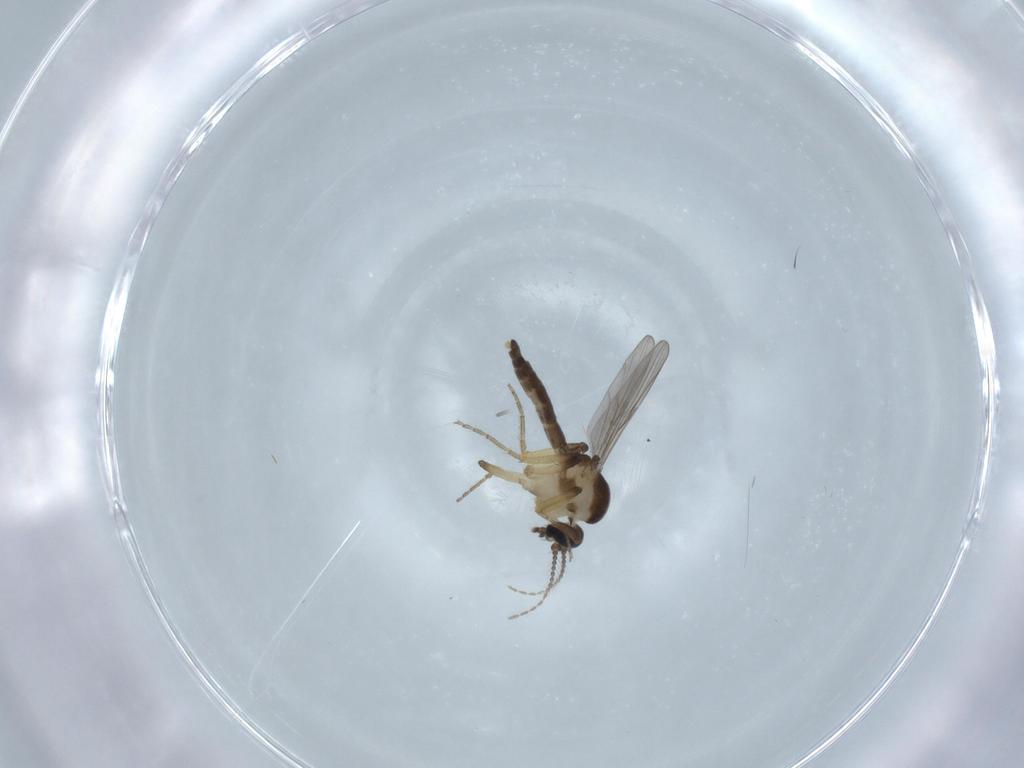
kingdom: Animalia
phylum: Arthropoda
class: Insecta
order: Diptera
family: Ceratopogonidae
